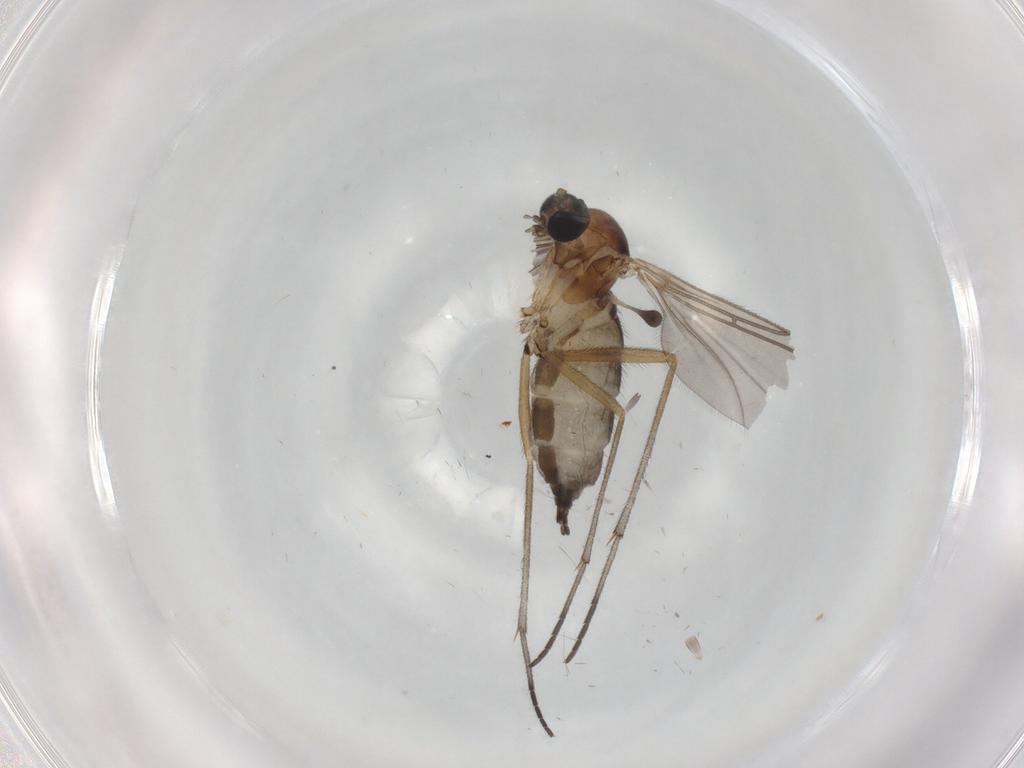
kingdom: Animalia
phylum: Arthropoda
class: Insecta
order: Diptera
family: Sciaridae
